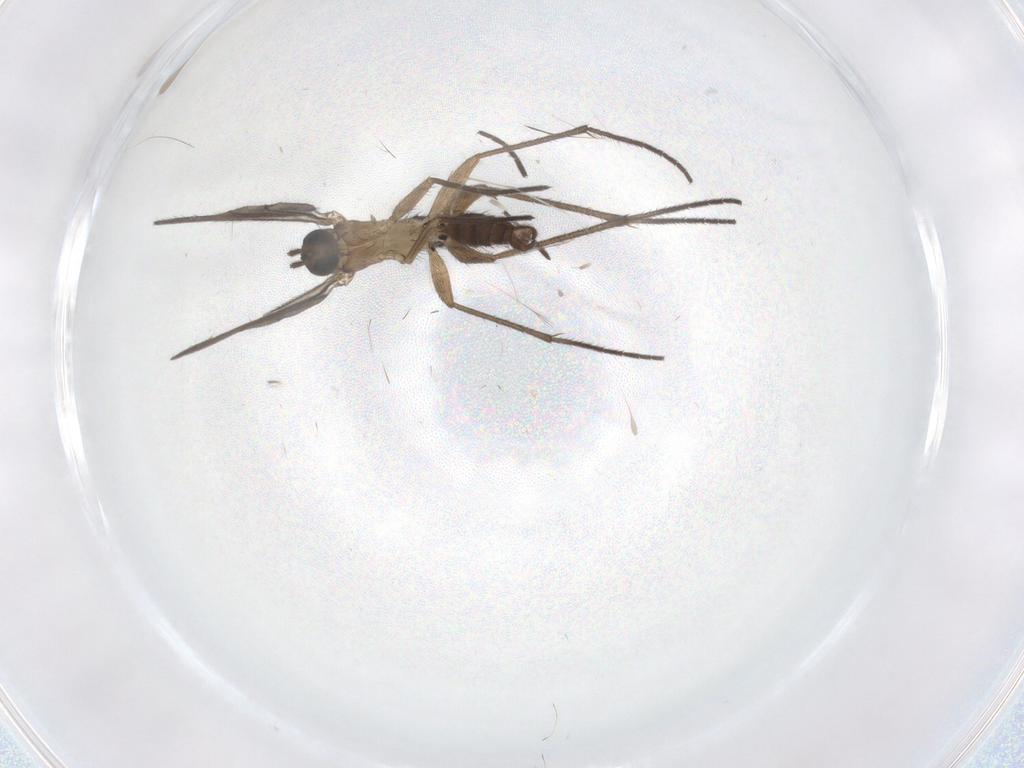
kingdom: Animalia
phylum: Arthropoda
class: Insecta
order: Diptera
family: Sciaridae
